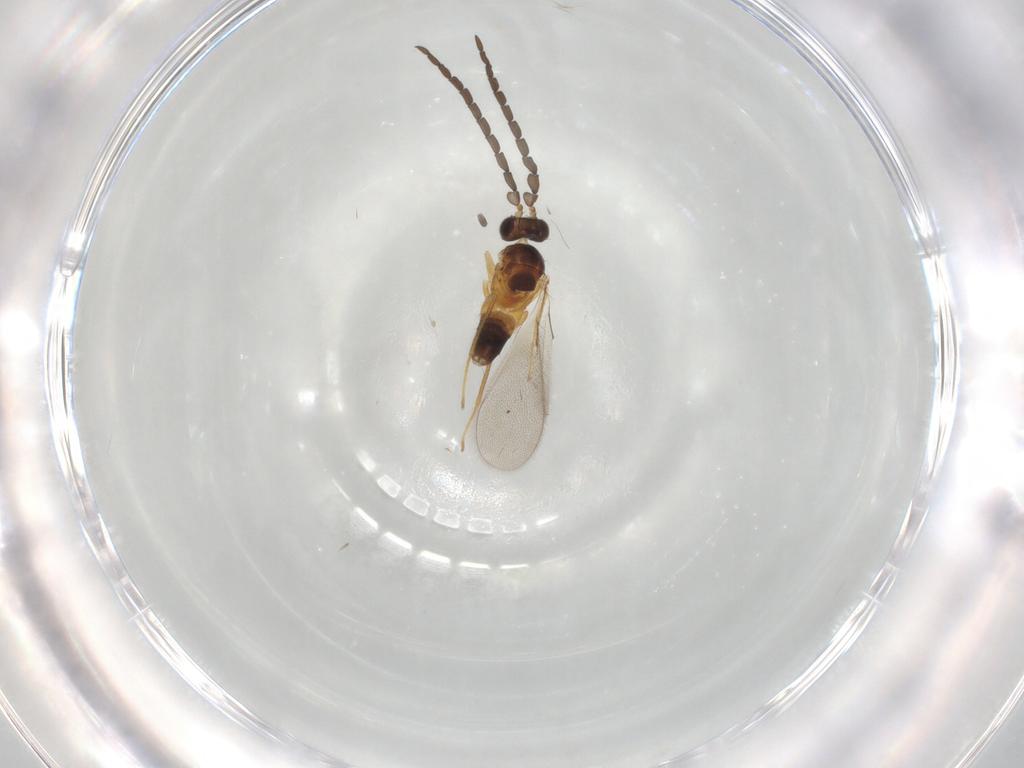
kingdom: Animalia
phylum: Arthropoda
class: Insecta
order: Hymenoptera
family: Mymaridae
